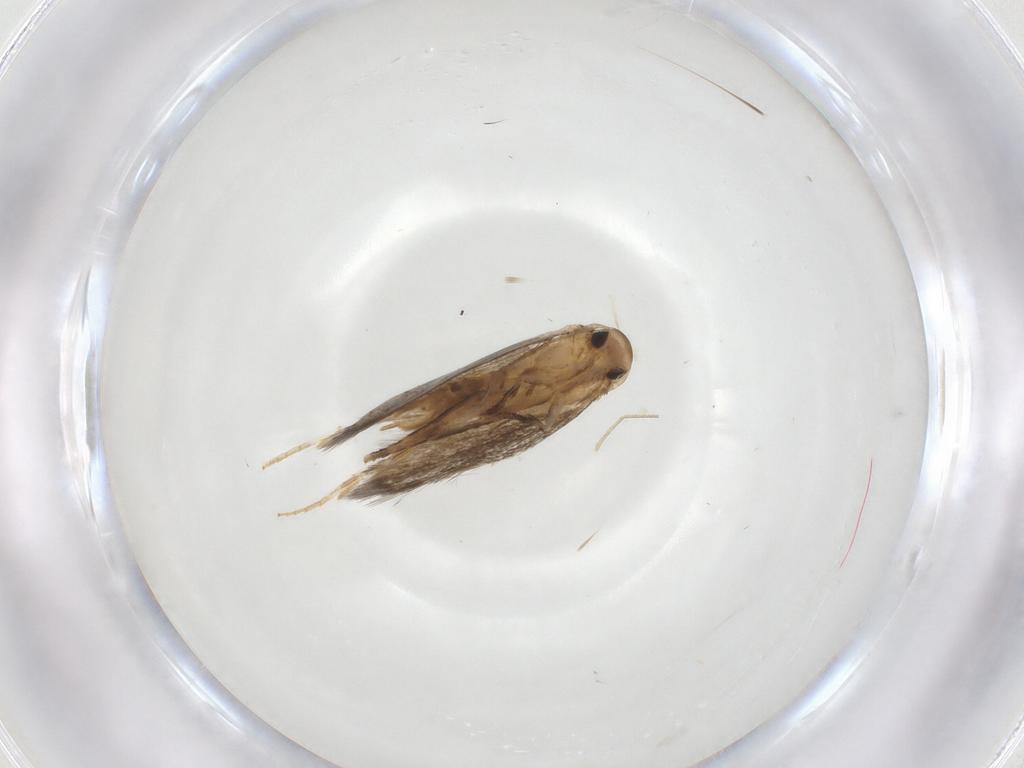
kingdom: Animalia
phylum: Arthropoda
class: Insecta
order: Lepidoptera
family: Elachistidae
